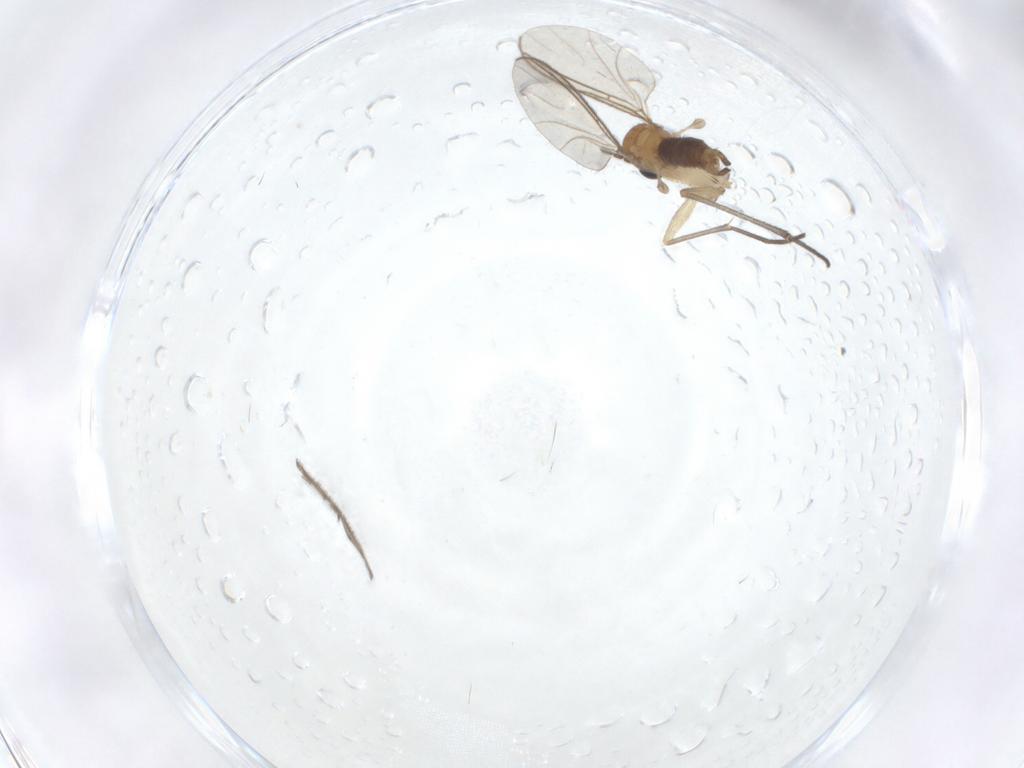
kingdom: Animalia
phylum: Arthropoda
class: Insecta
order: Diptera
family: Sciaridae
